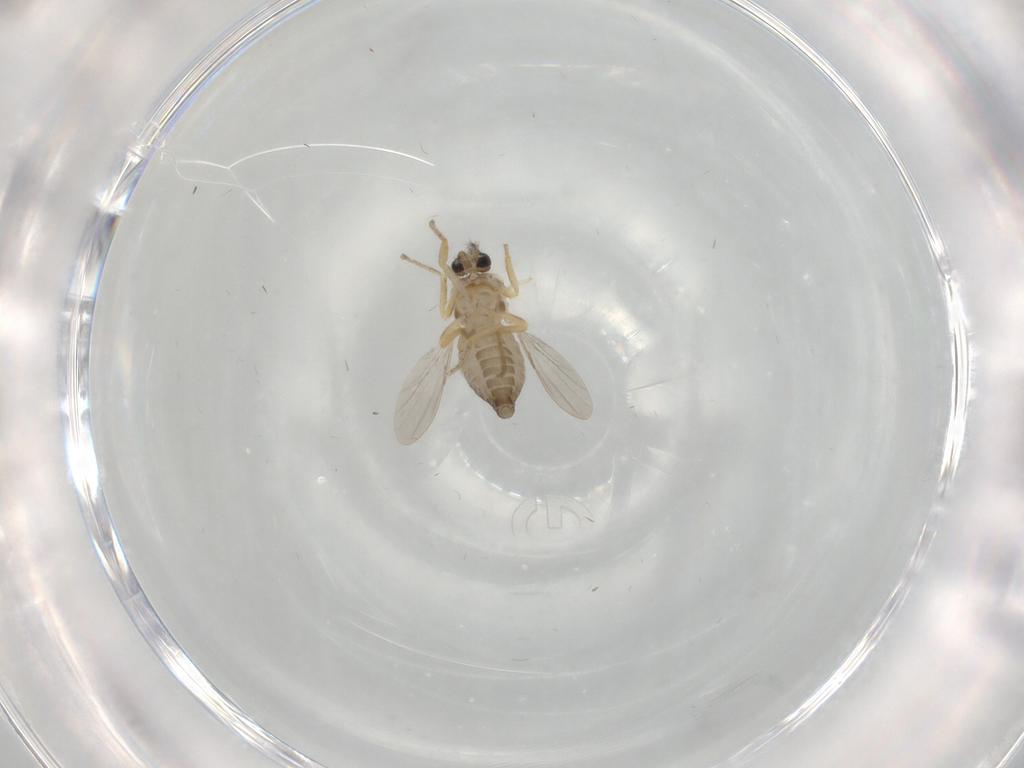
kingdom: Animalia
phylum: Arthropoda
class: Insecta
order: Diptera
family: Ceratopogonidae
